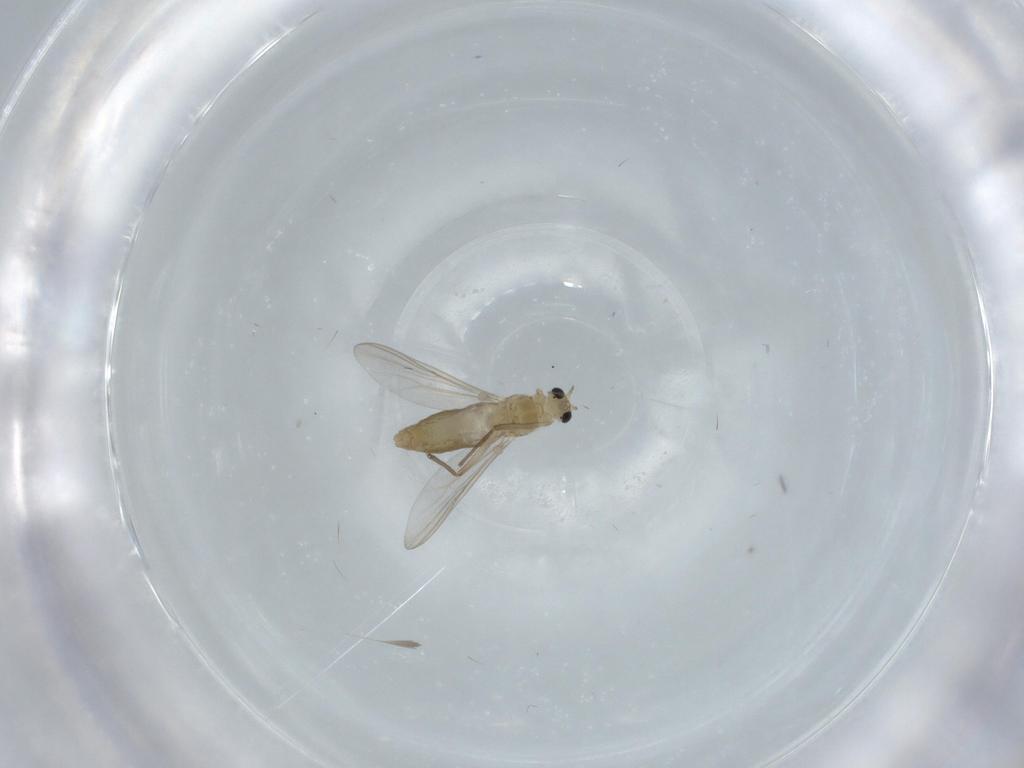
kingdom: Animalia
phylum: Arthropoda
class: Insecta
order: Diptera
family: Chironomidae
